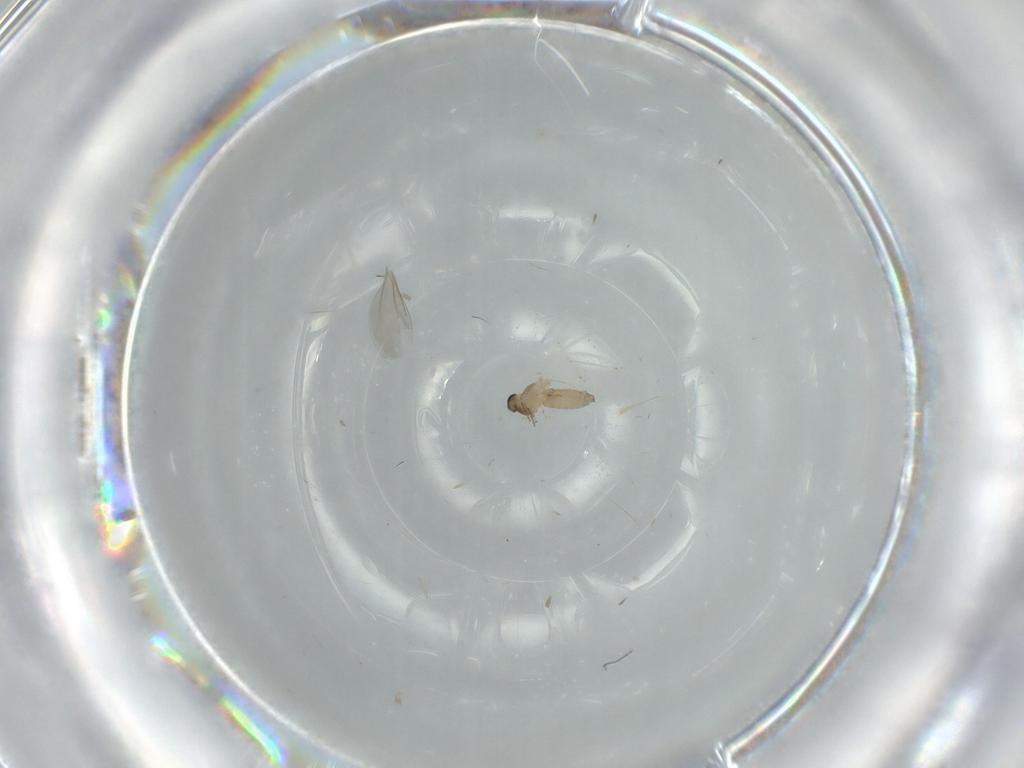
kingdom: Animalia
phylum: Arthropoda
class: Insecta
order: Diptera
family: Cecidomyiidae
